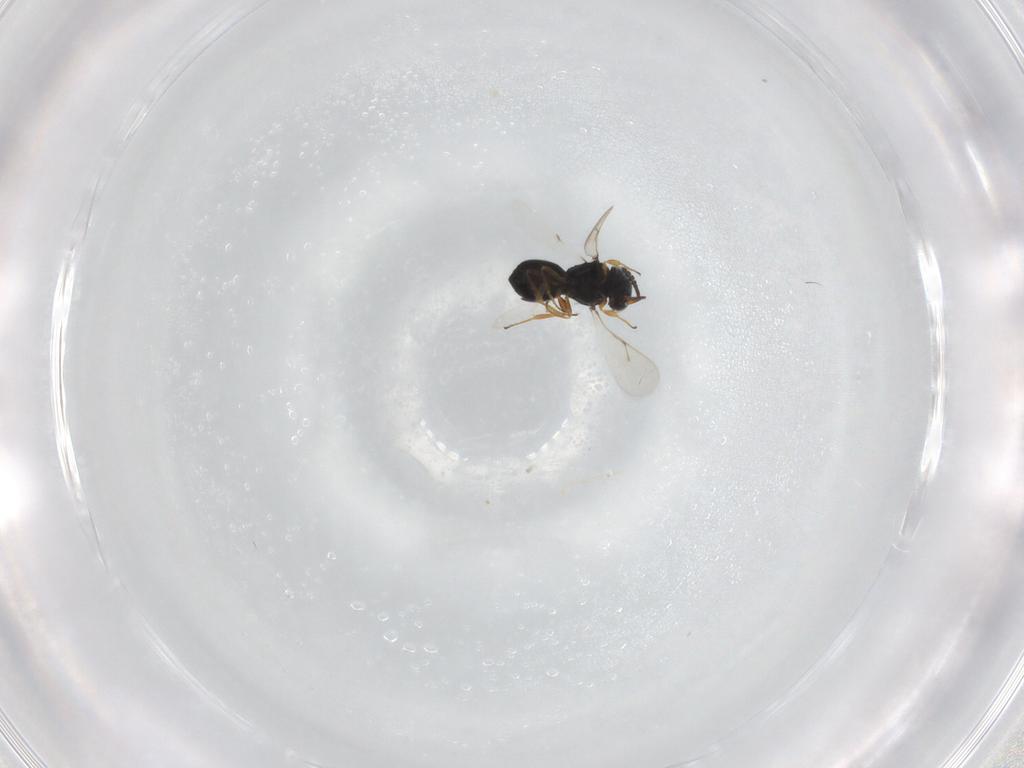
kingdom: Animalia
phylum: Arthropoda
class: Insecta
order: Hymenoptera
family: Scelionidae
